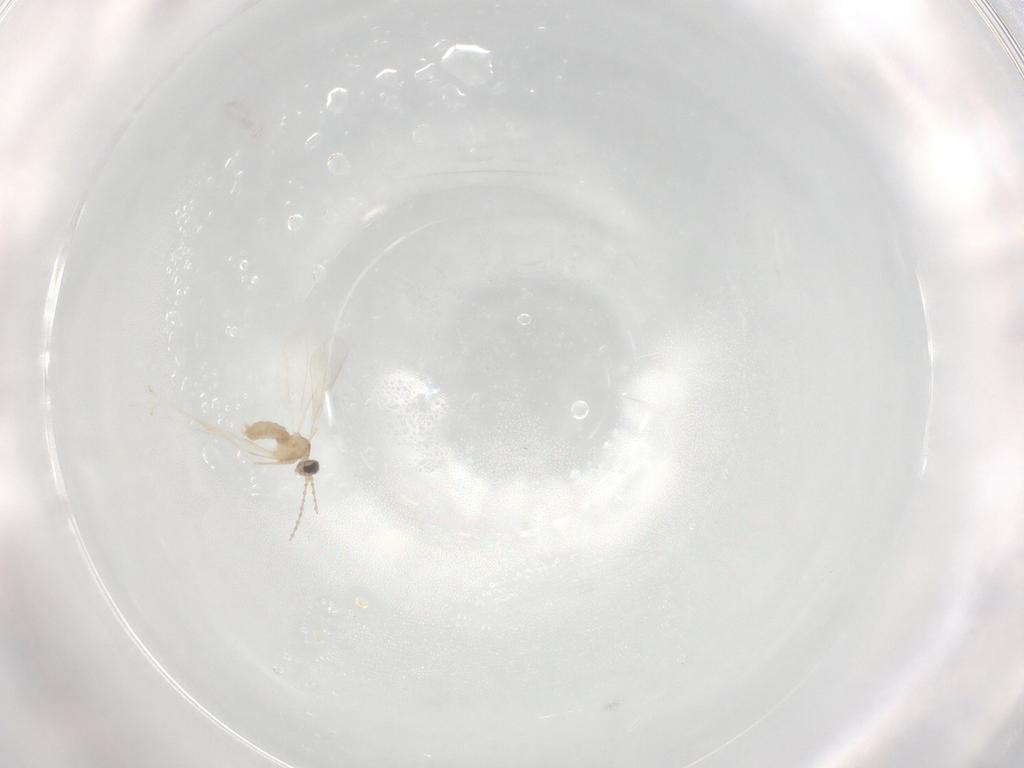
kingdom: Animalia
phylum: Arthropoda
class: Insecta
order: Diptera
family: Cecidomyiidae
